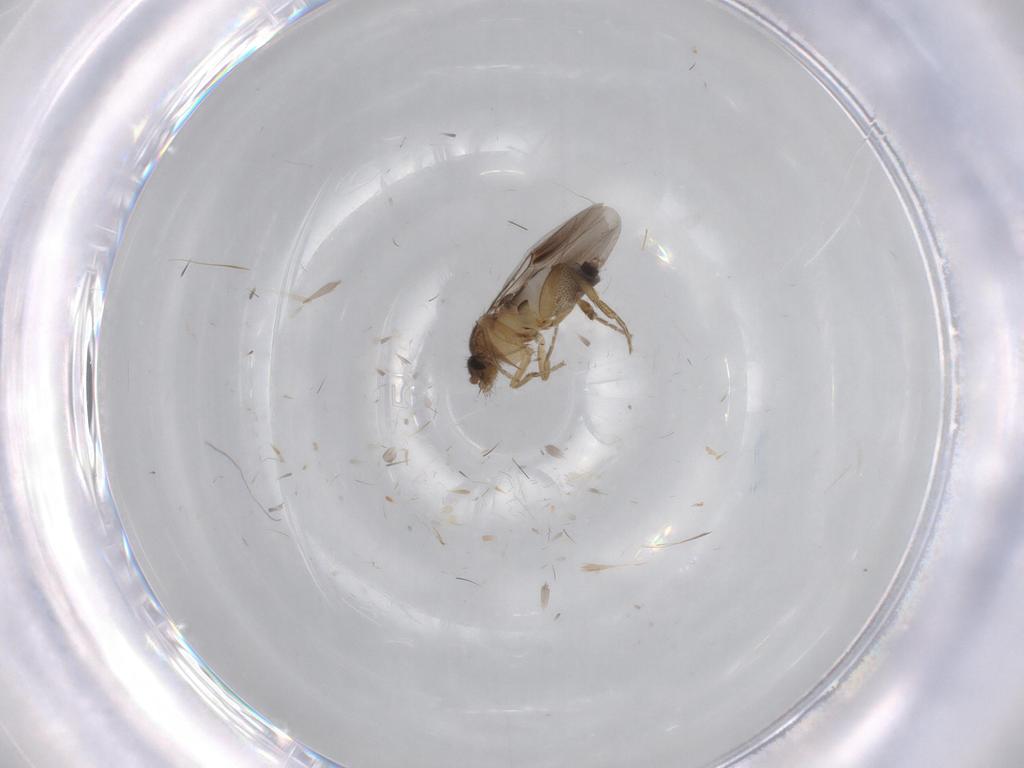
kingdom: Animalia
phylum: Arthropoda
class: Insecta
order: Diptera
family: Phoridae
